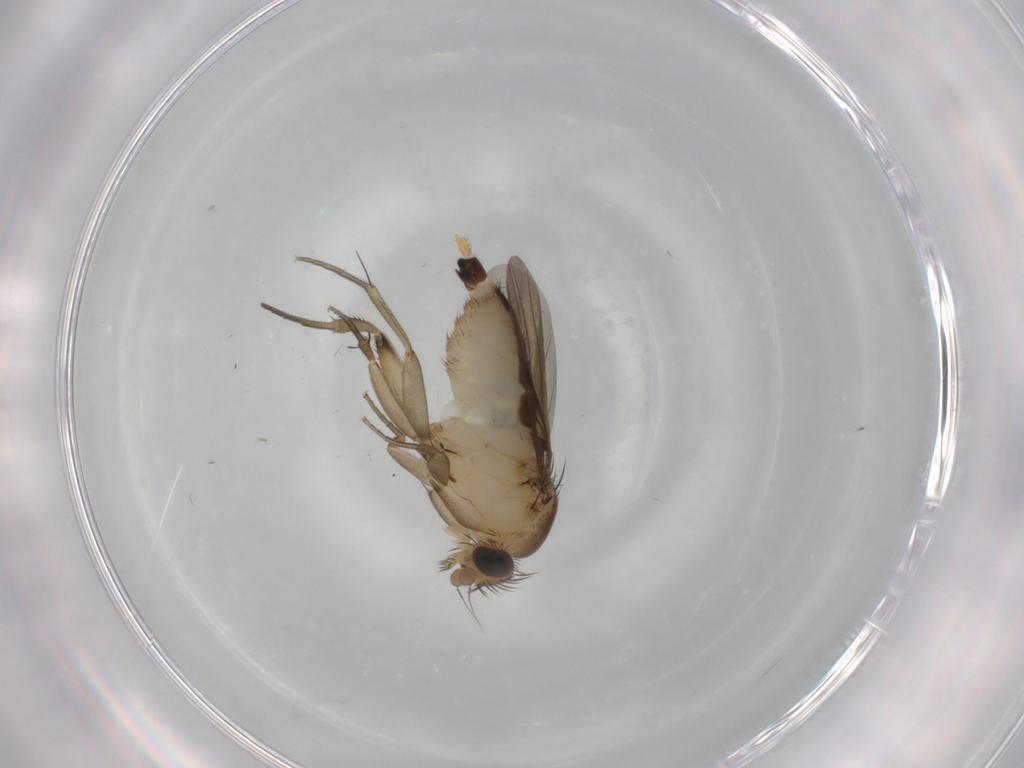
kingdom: Animalia
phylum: Arthropoda
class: Insecta
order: Diptera
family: Phoridae
